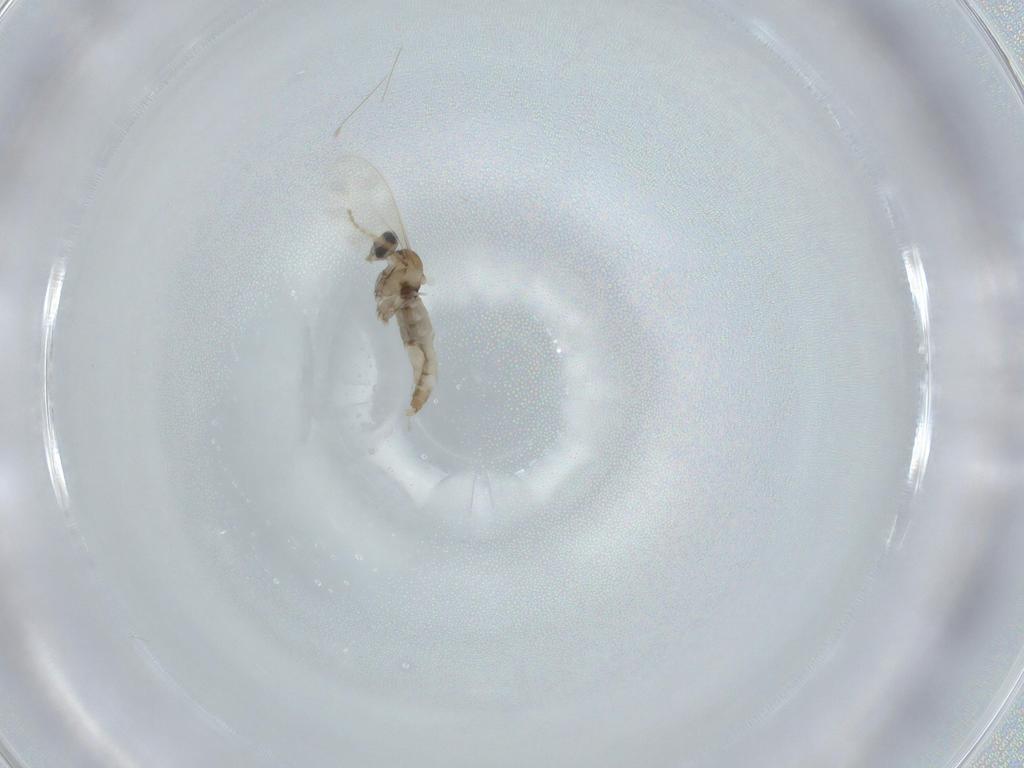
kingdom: Animalia
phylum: Arthropoda
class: Insecta
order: Diptera
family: Cecidomyiidae
